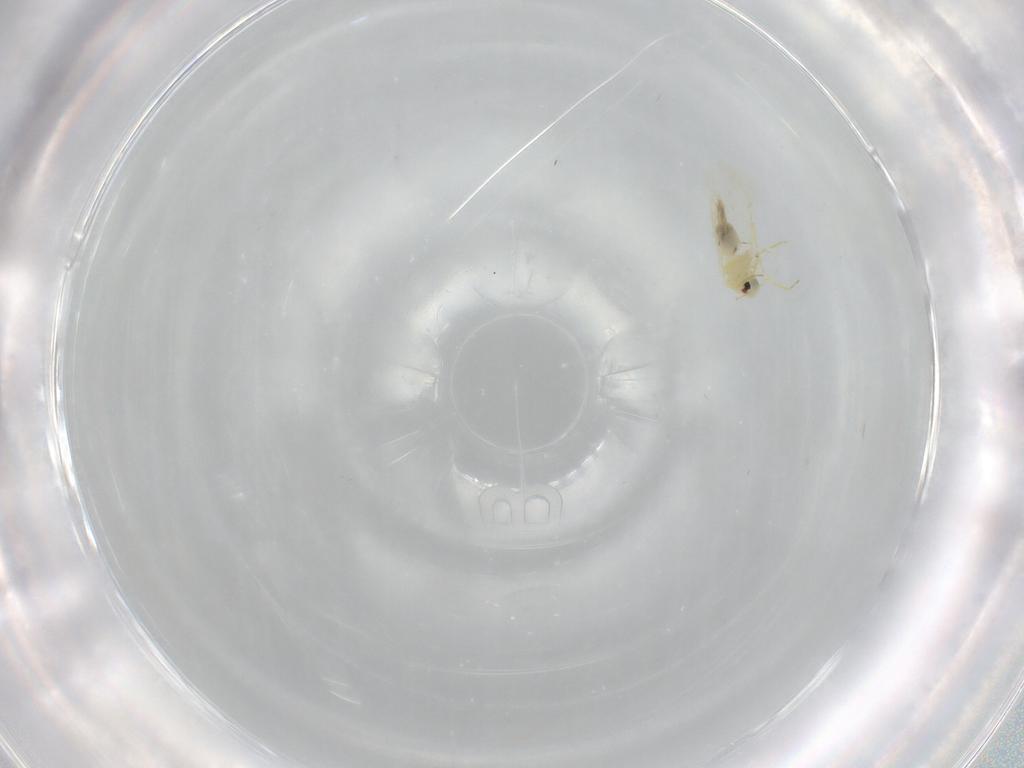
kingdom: Animalia
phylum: Arthropoda
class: Insecta
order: Hemiptera
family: Aleyrodidae
